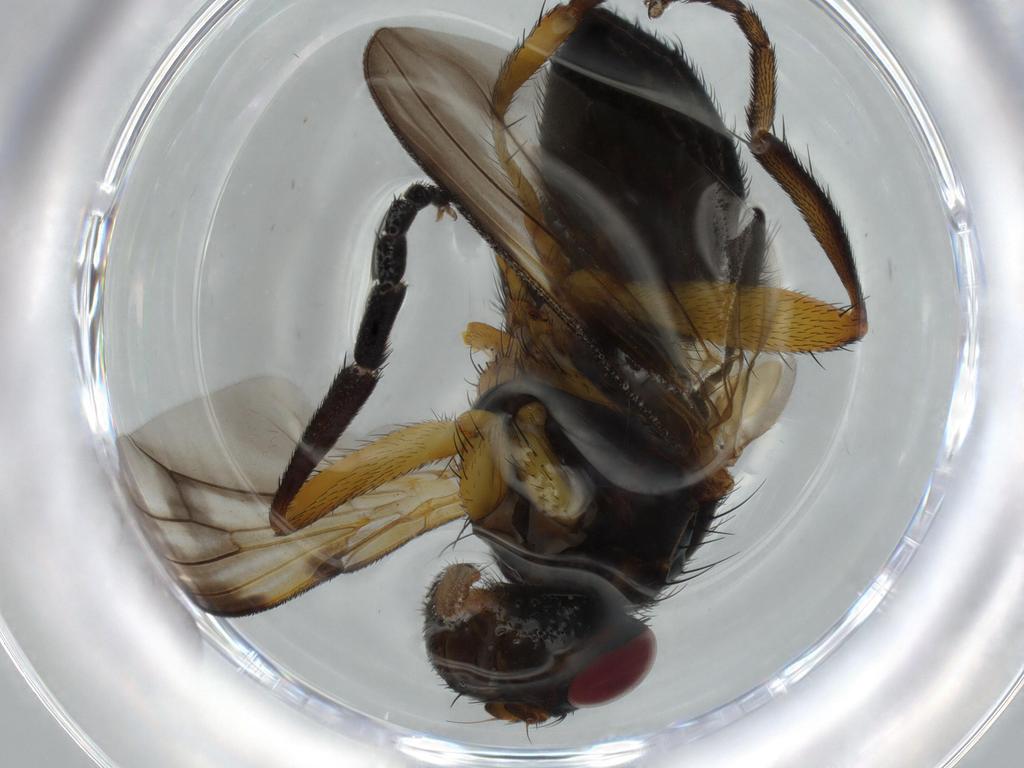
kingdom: Animalia
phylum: Arthropoda
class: Insecta
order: Diptera
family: Calliphoridae
